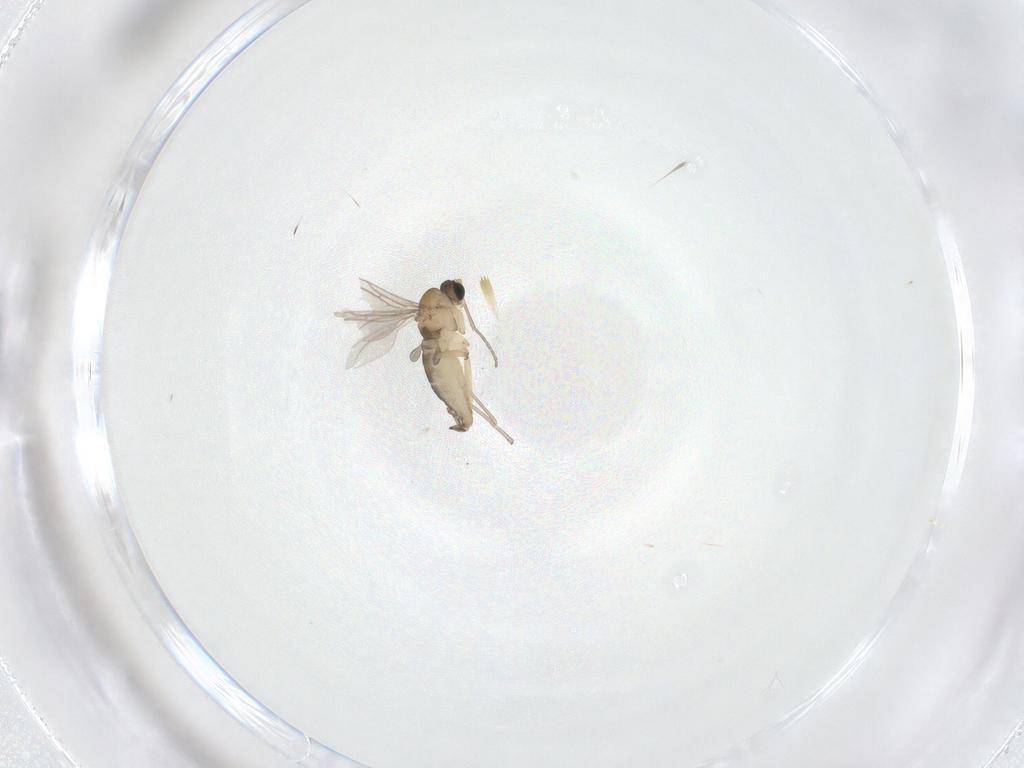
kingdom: Animalia
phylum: Arthropoda
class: Insecta
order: Diptera
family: Sciaridae
